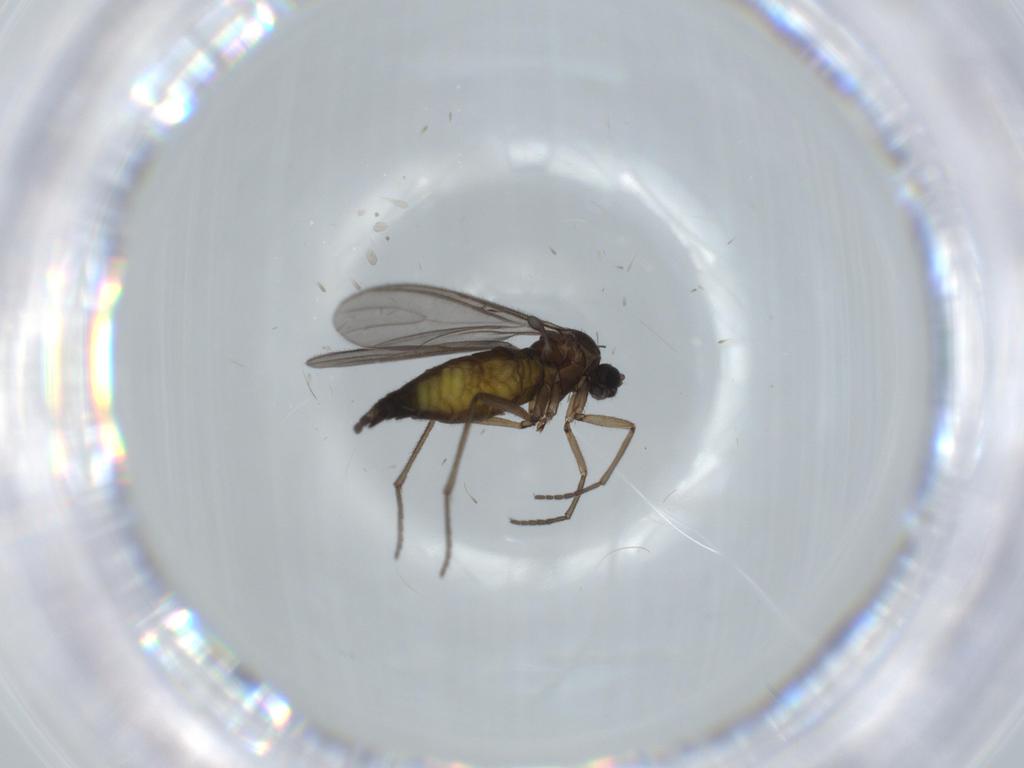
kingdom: Animalia
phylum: Arthropoda
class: Insecta
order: Diptera
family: Sciaridae
